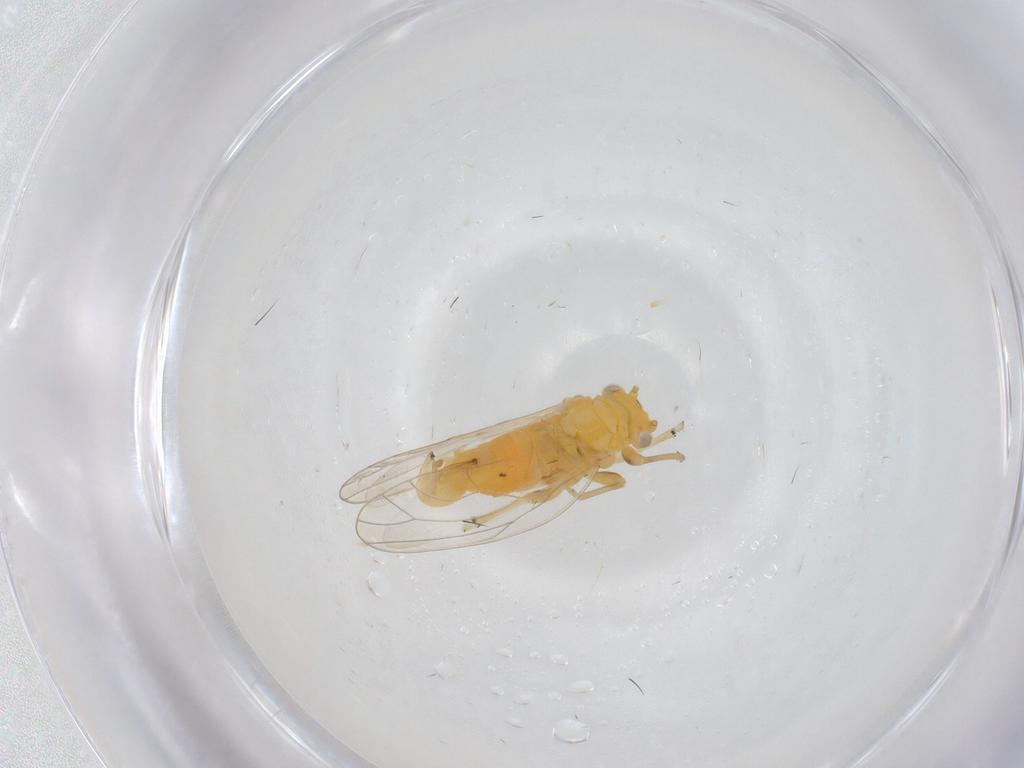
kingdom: Animalia
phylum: Arthropoda
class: Insecta
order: Hemiptera
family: Psyllidae
